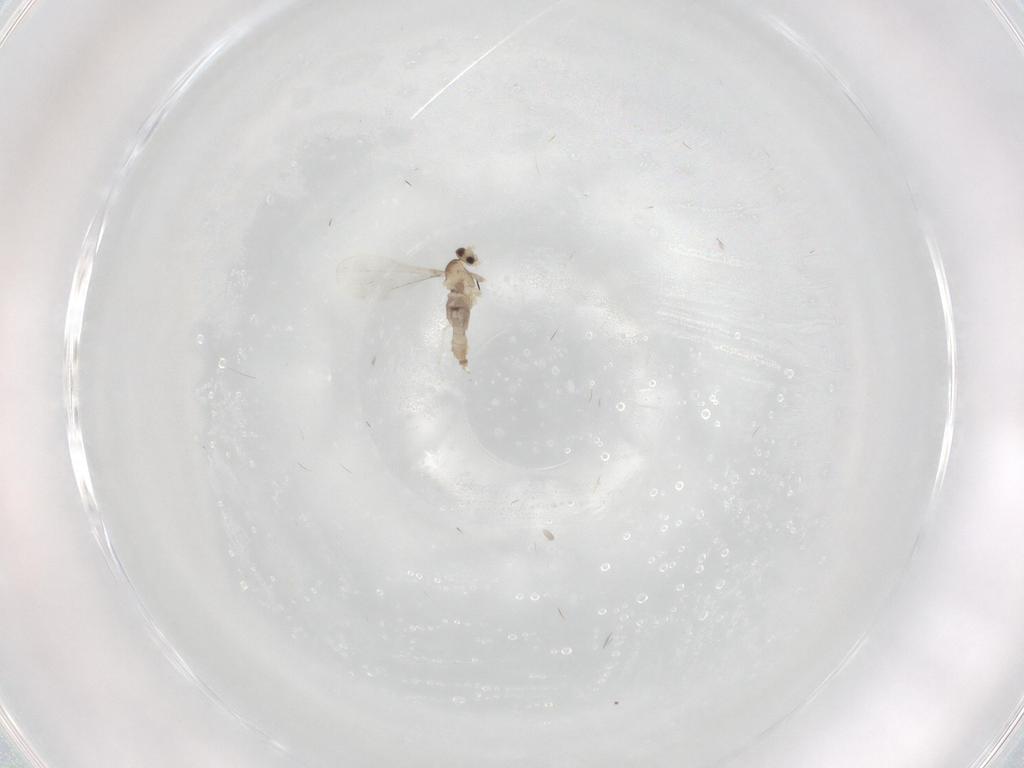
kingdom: Animalia
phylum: Arthropoda
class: Insecta
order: Diptera
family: Cecidomyiidae
